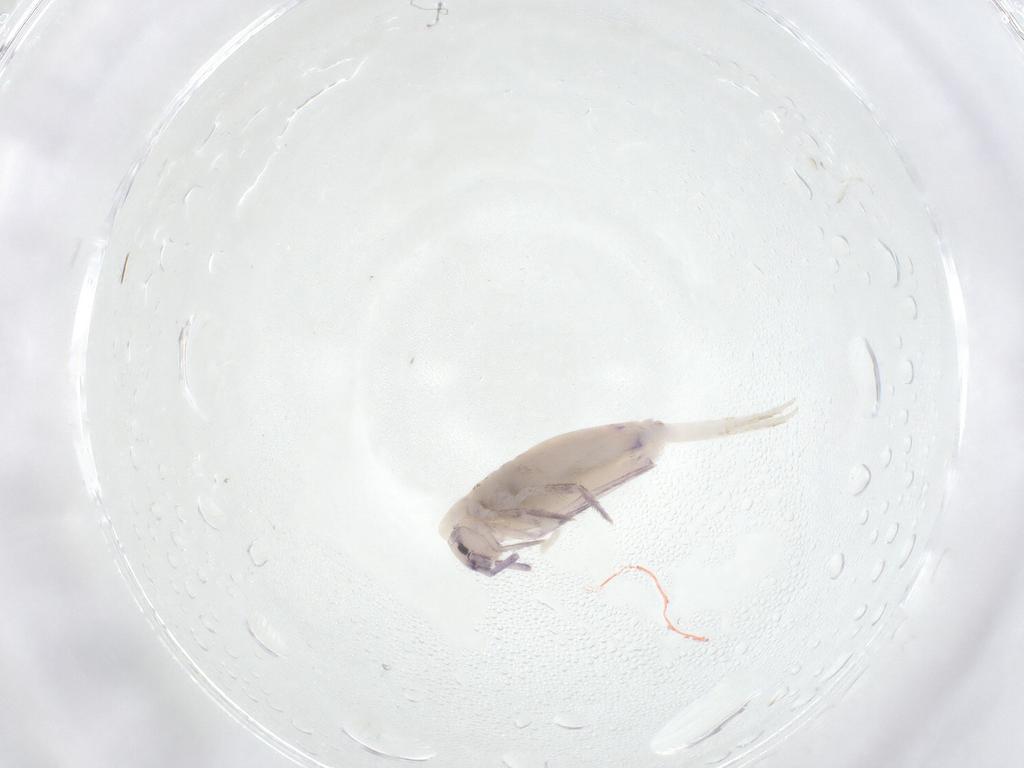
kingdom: Animalia
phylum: Arthropoda
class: Collembola
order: Entomobryomorpha
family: Entomobryidae
